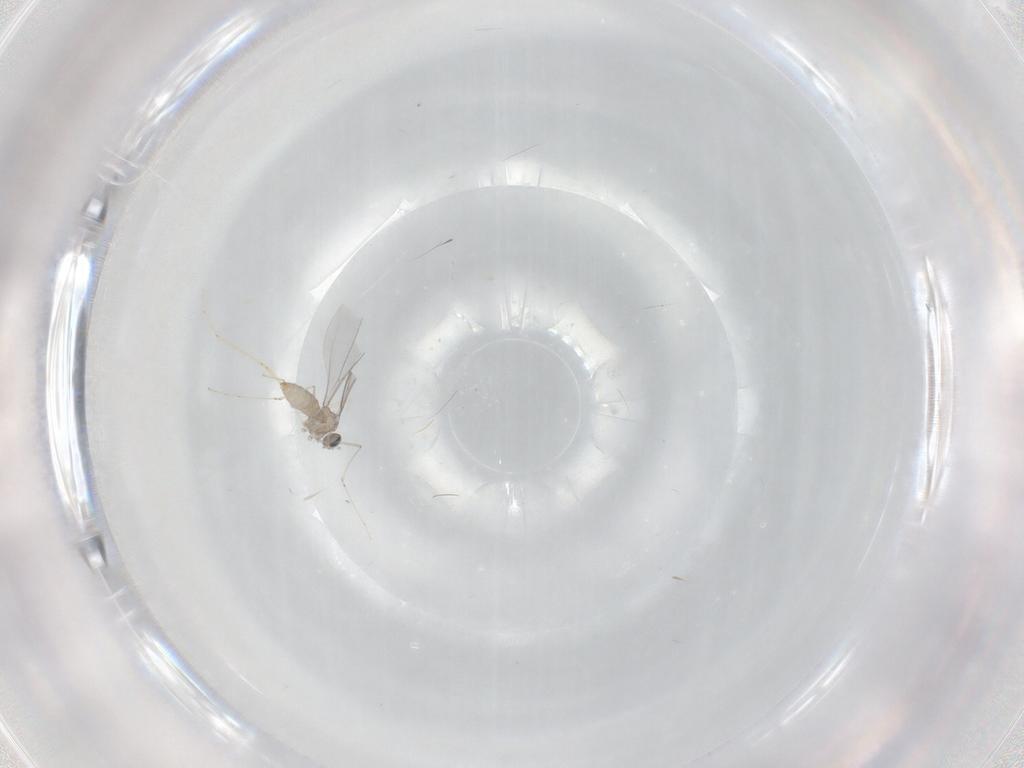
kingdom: Animalia
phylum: Arthropoda
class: Insecta
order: Diptera
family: Cecidomyiidae
